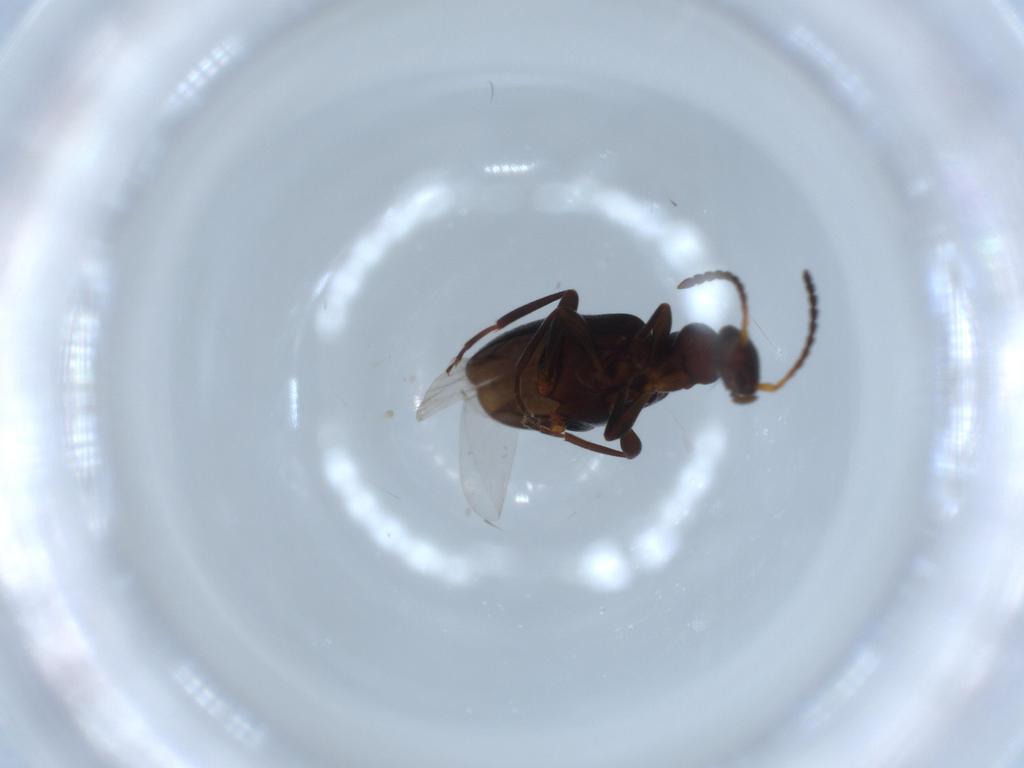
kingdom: Animalia
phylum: Arthropoda
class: Insecta
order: Coleoptera
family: Anthicidae
